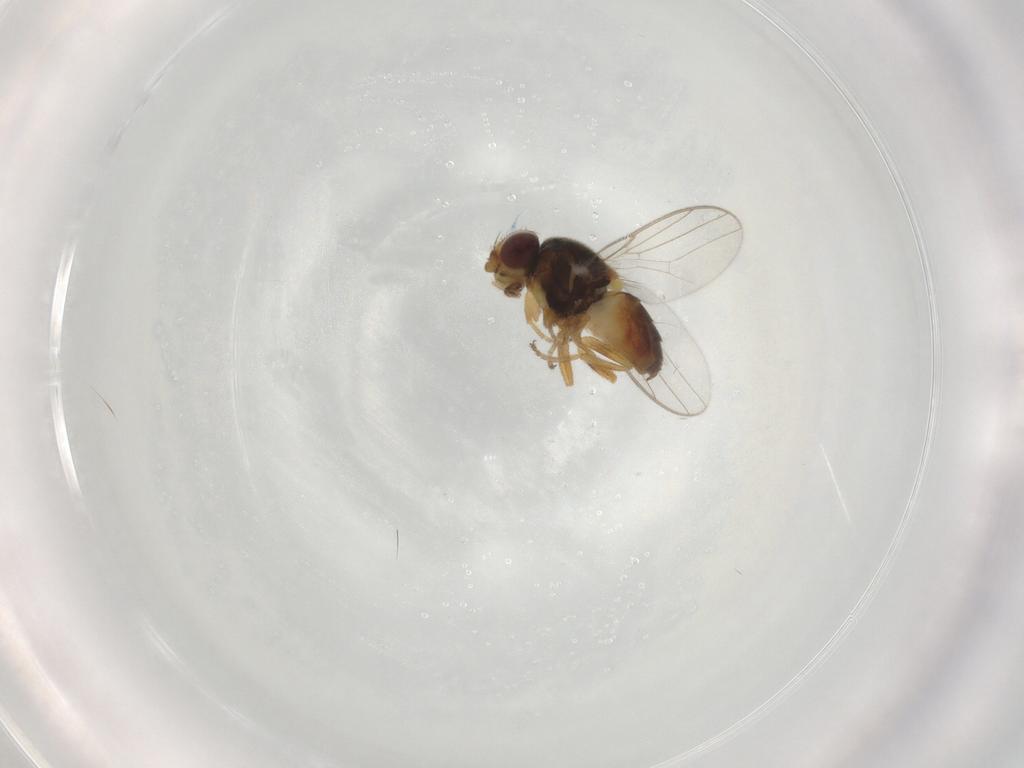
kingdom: Animalia
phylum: Arthropoda
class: Insecta
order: Diptera
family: Chloropidae
